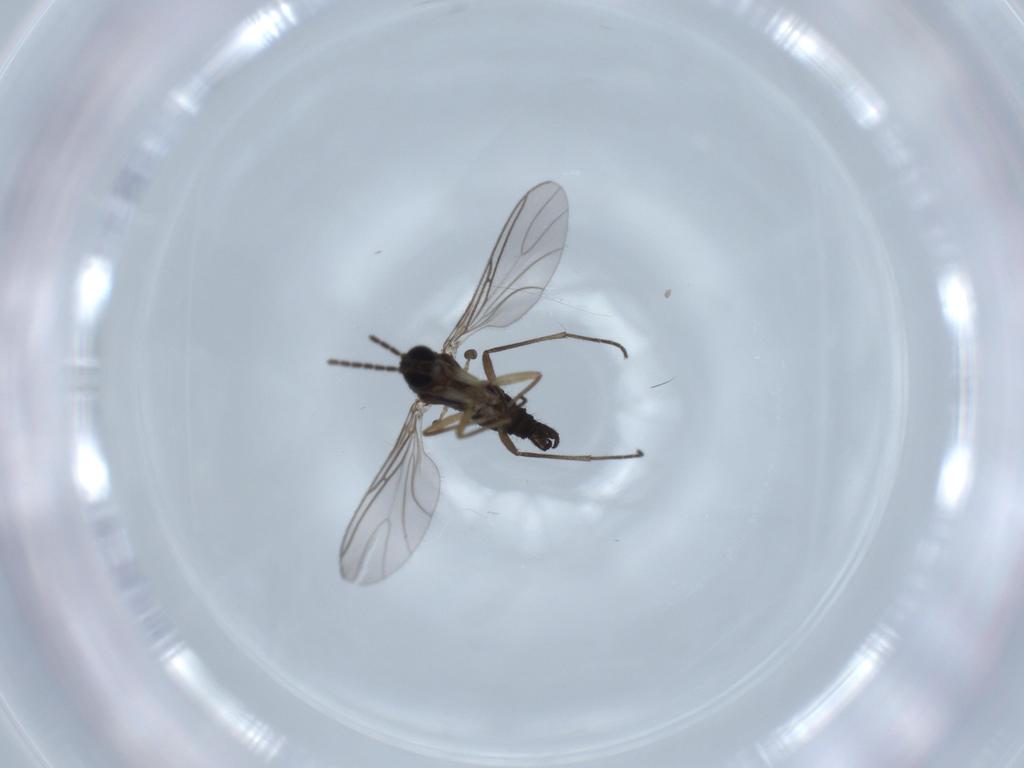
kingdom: Animalia
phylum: Arthropoda
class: Insecta
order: Diptera
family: Sciaridae
